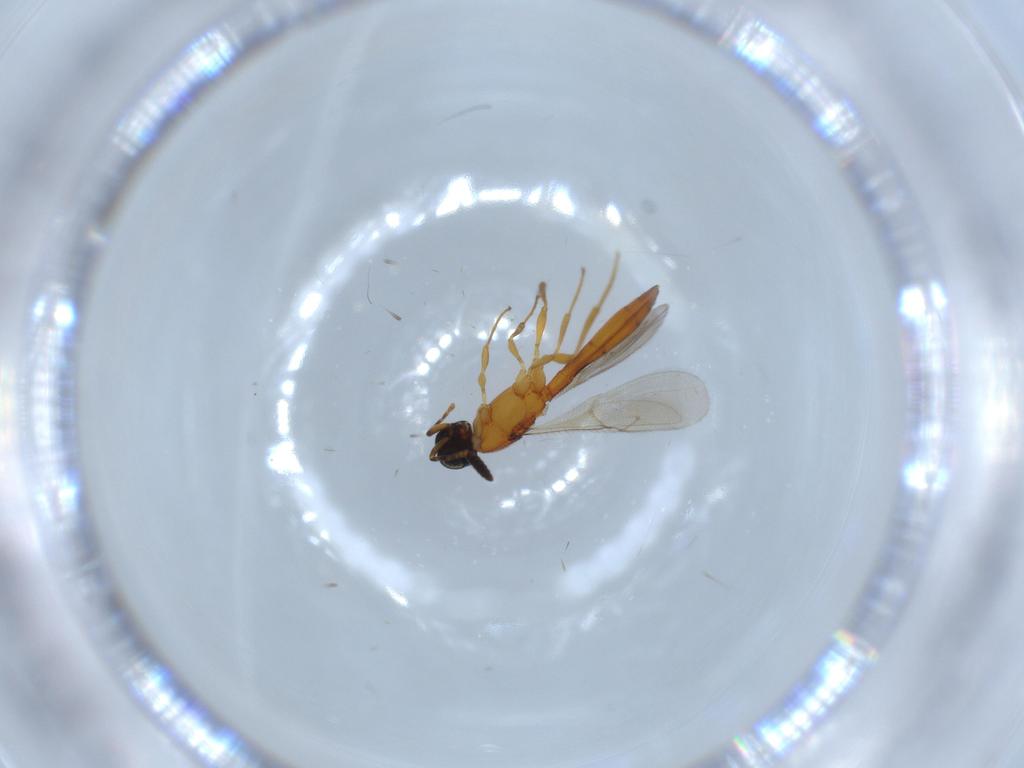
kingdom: Animalia
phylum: Arthropoda
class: Insecta
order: Hymenoptera
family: Scelionidae
